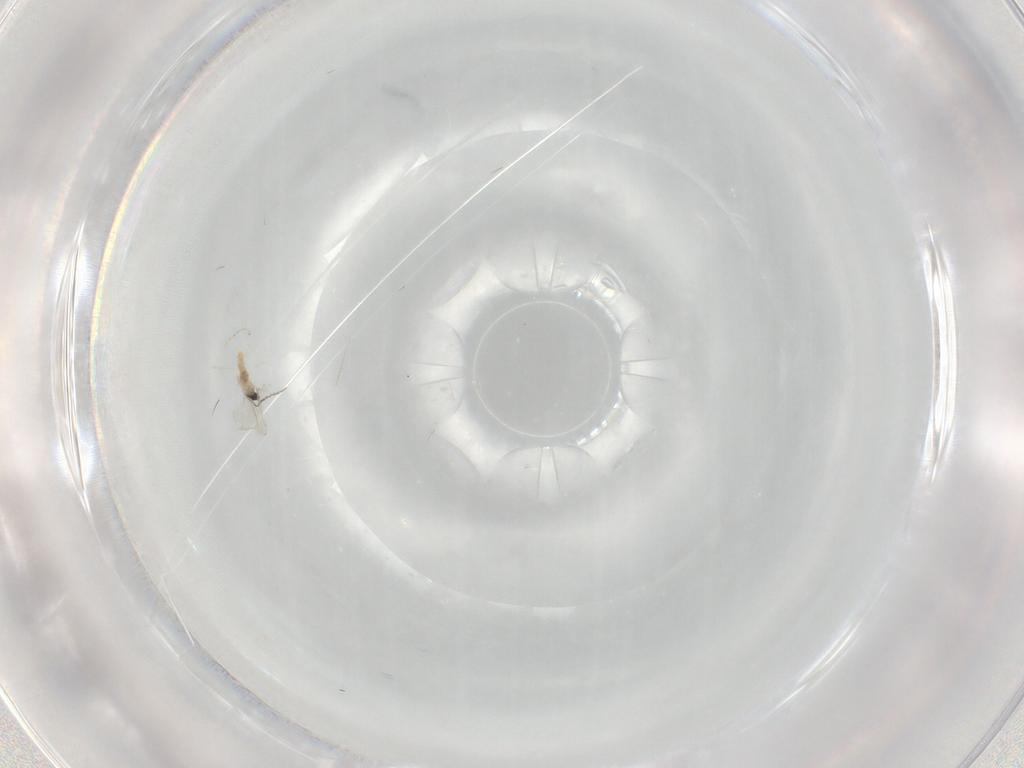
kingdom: Animalia
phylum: Arthropoda
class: Insecta
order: Diptera
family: Cecidomyiidae
